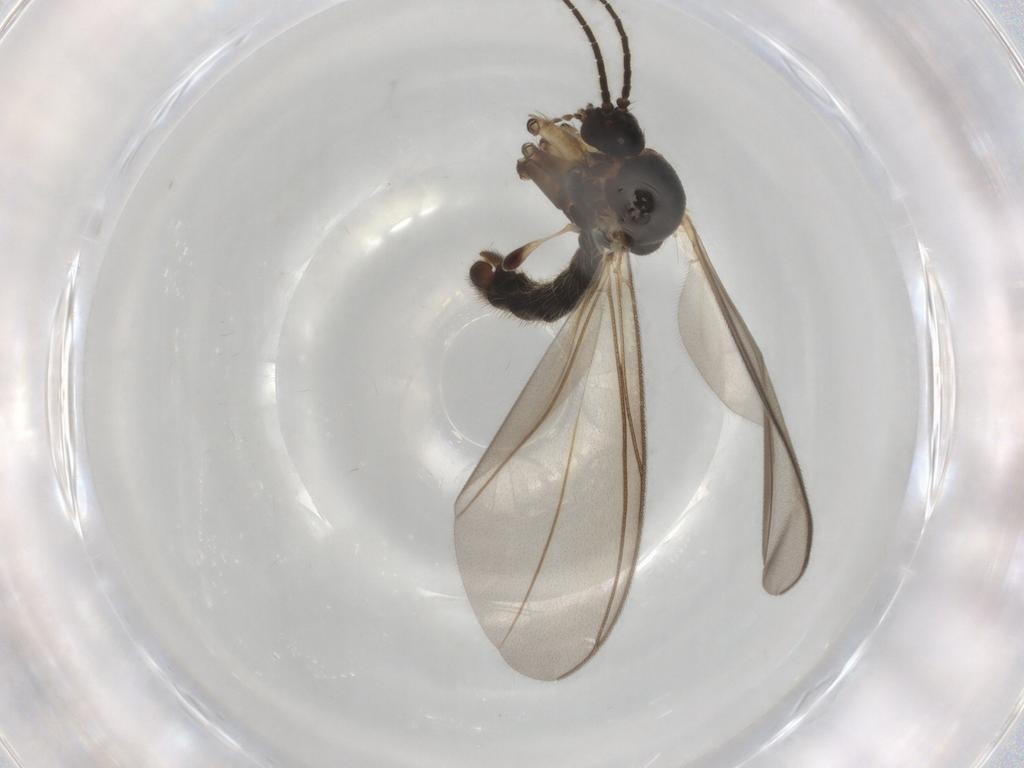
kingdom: Animalia
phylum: Arthropoda
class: Insecta
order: Diptera
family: Mycetophilidae
